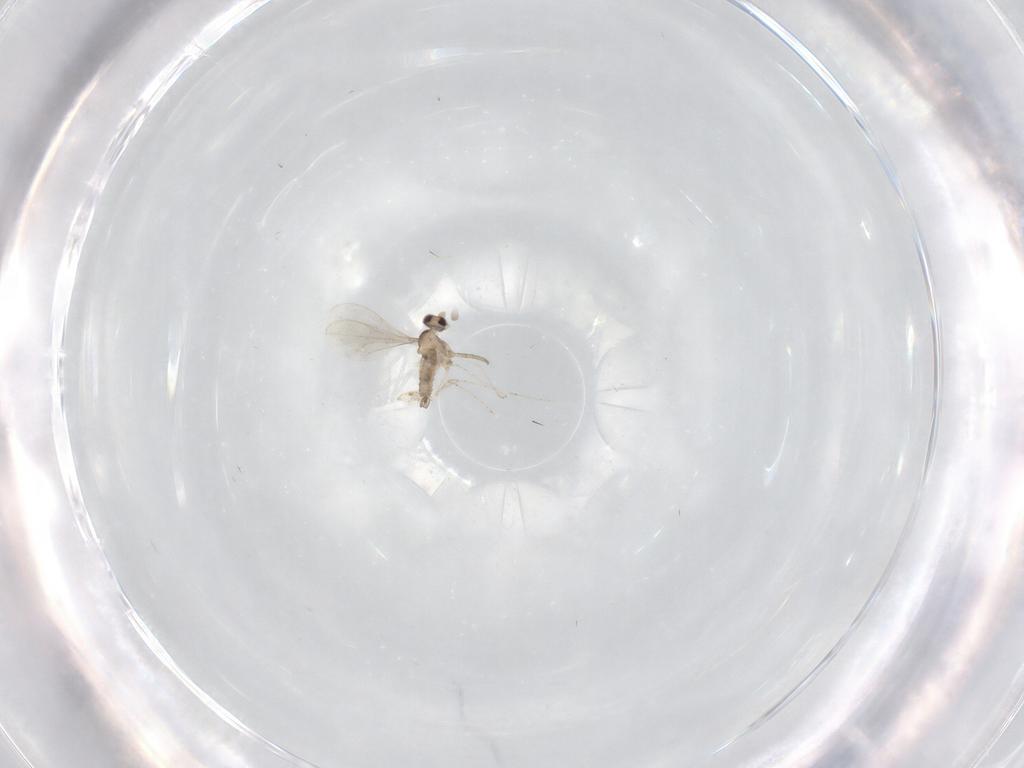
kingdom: Animalia
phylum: Arthropoda
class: Insecta
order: Diptera
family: Cecidomyiidae
